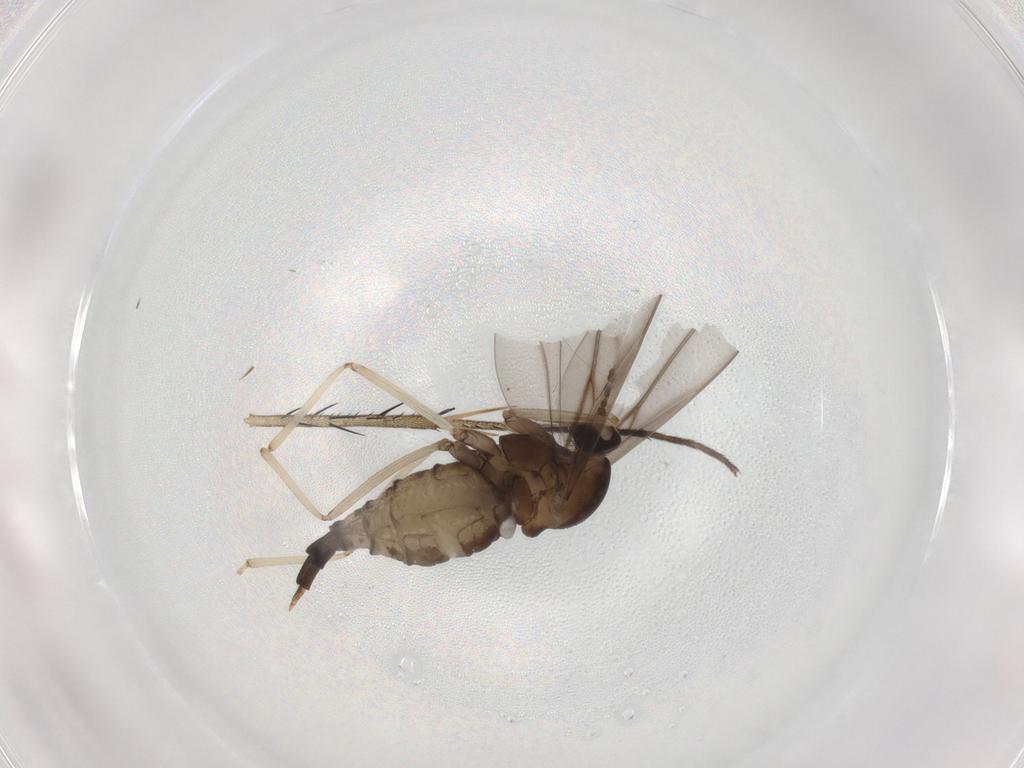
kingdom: Animalia
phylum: Arthropoda
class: Insecta
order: Diptera
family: Cecidomyiidae
